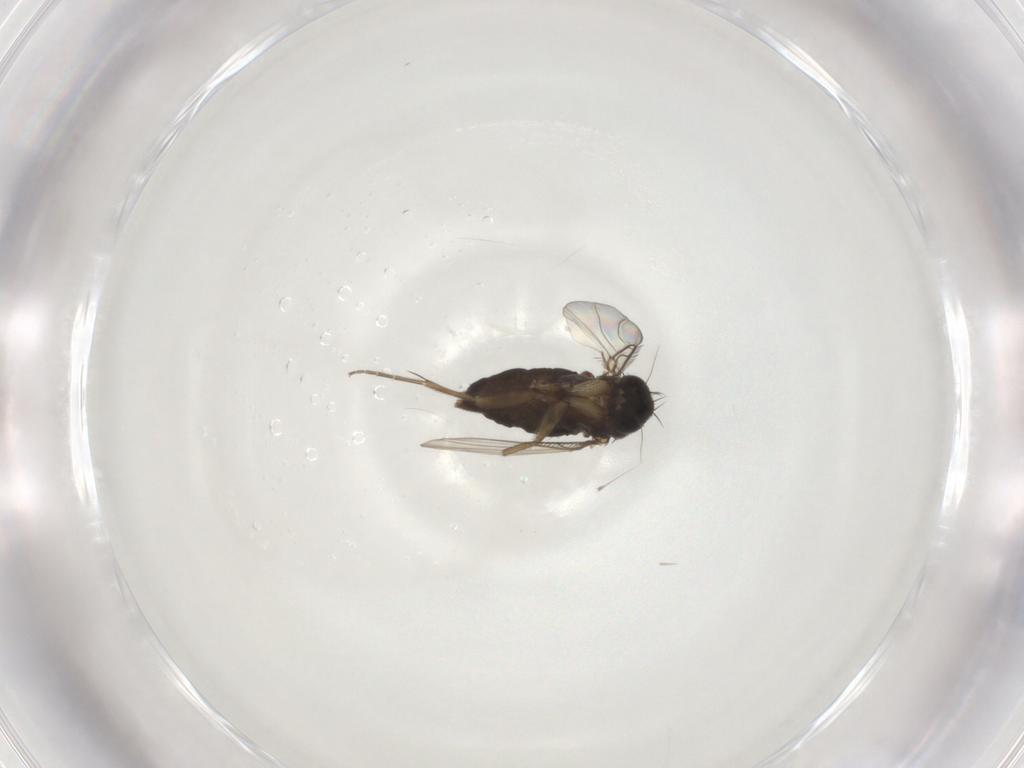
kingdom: Animalia
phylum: Arthropoda
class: Insecta
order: Diptera
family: Phoridae
